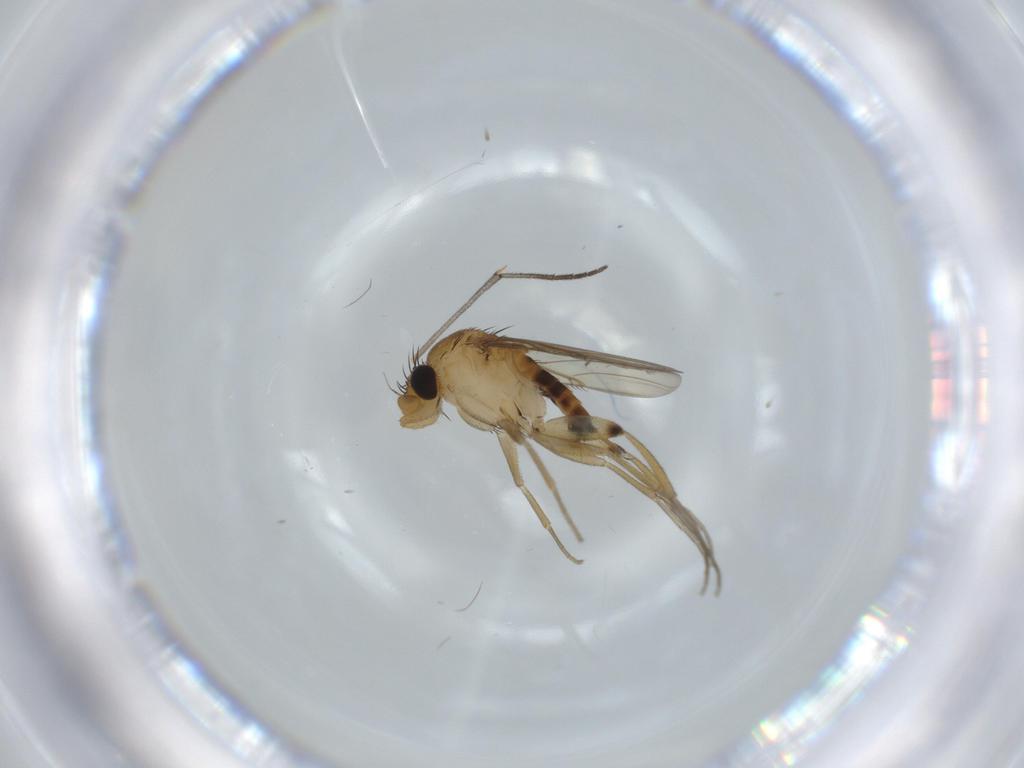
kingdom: Animalia
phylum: Arthropoda
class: Insecta
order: Diptera
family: Phoridae
